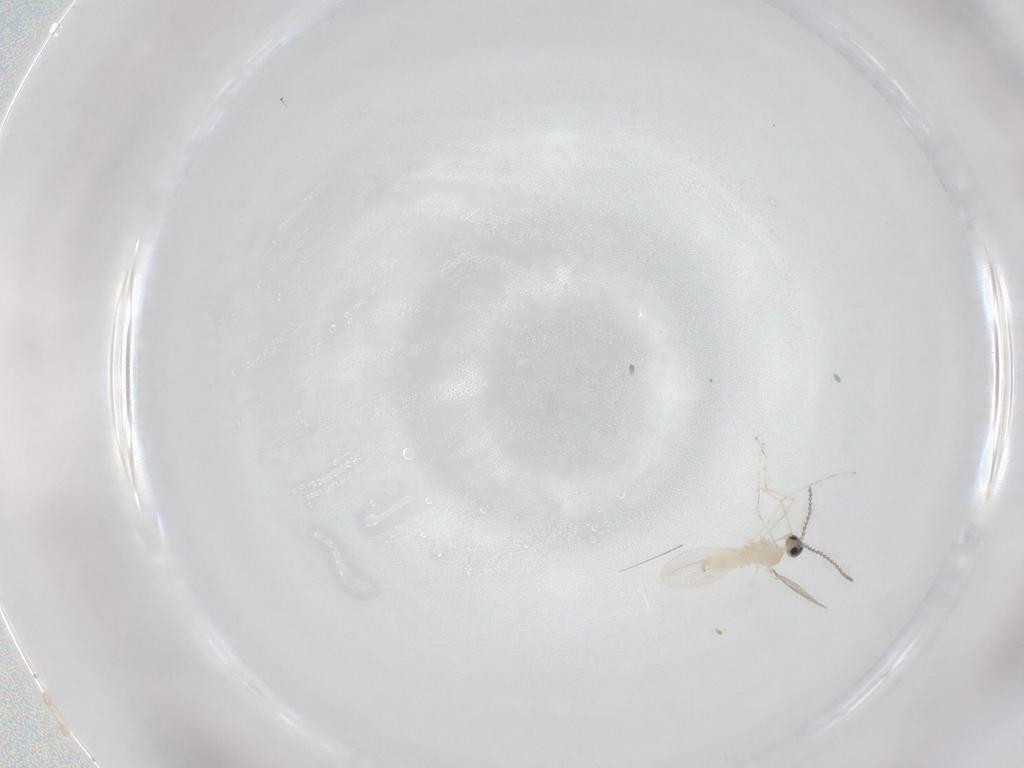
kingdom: Animalia
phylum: Arthropoda
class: Insecta
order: Diptera
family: Cecidomyiidae
